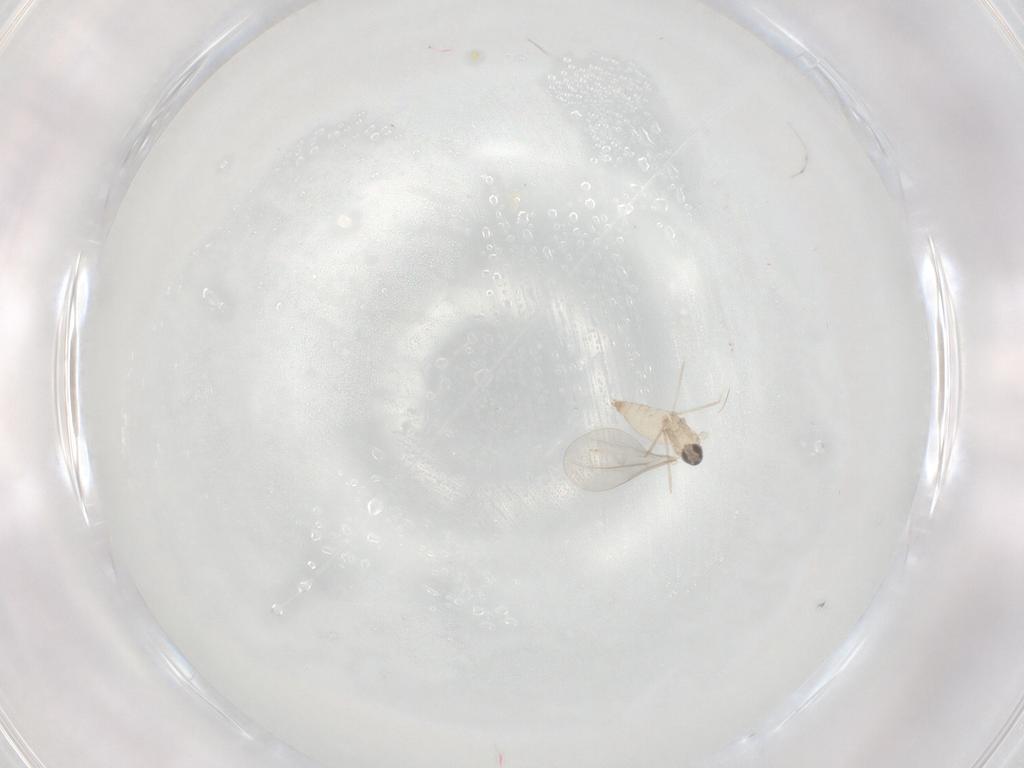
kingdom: Animalia
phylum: Arthropoda
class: Insecta
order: Diptera
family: Cecidomyiidae
